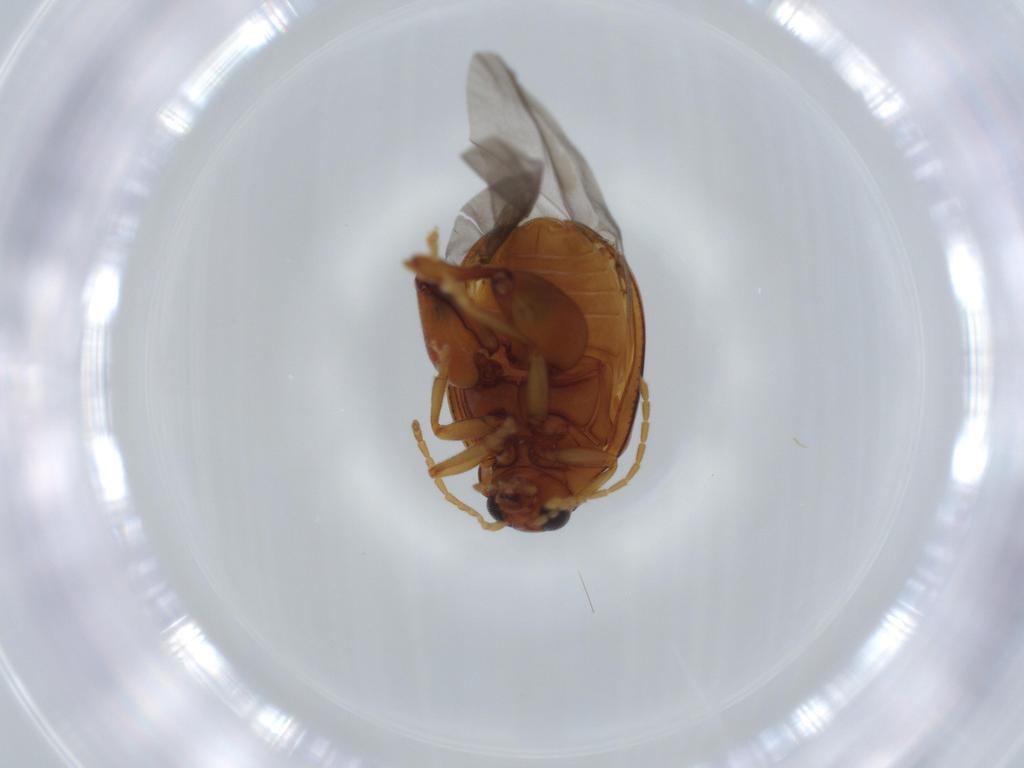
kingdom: Animalia
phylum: Arthropoda
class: Insecta
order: Coleoptera
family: Chrysomelidae
